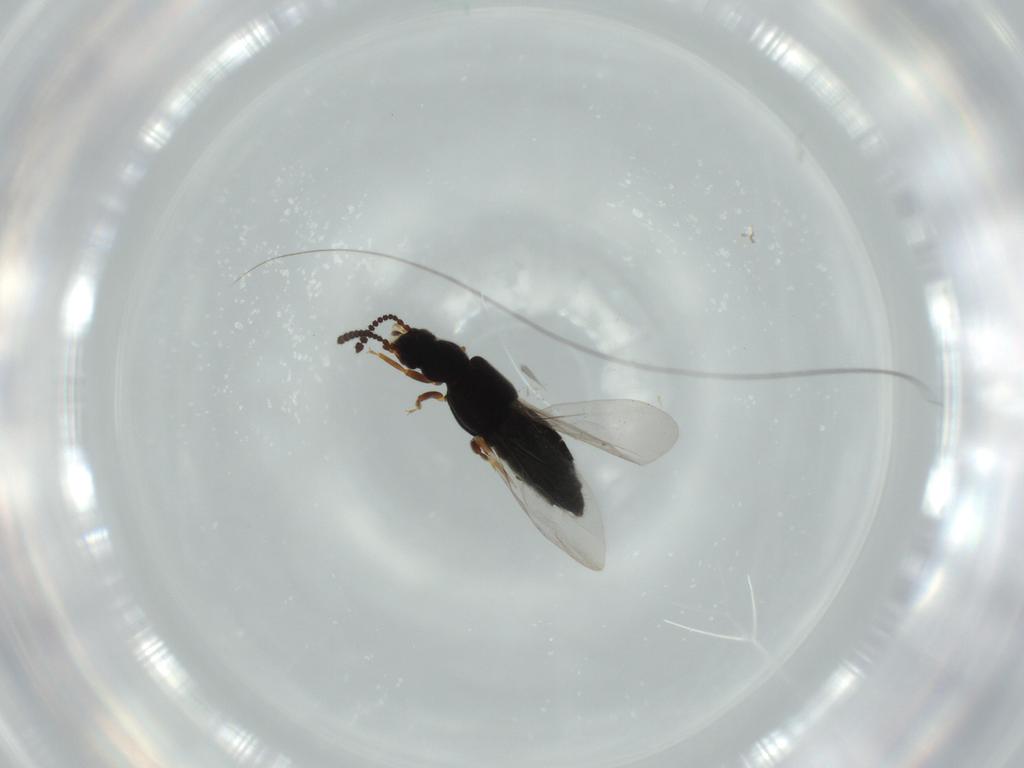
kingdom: Animalia
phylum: Arthropoda
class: Insecta
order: Coleoptera
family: Staphylinidae
